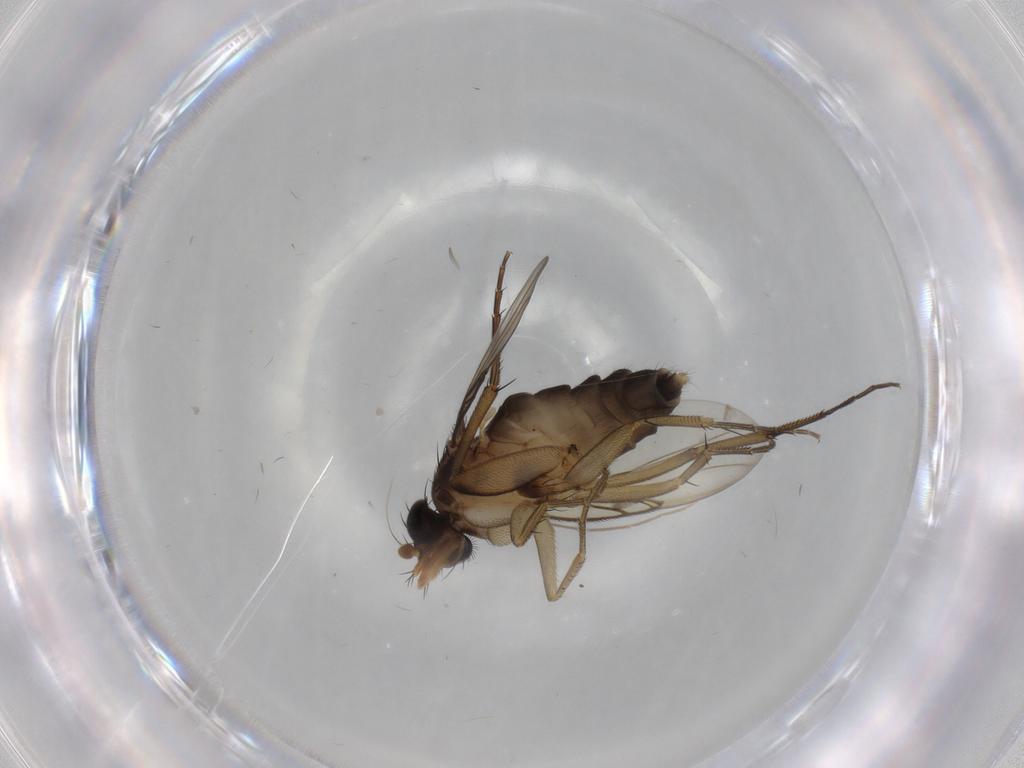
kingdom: Animalia
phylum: Arthropoda
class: Insecta
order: Diptera
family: Phoridae
